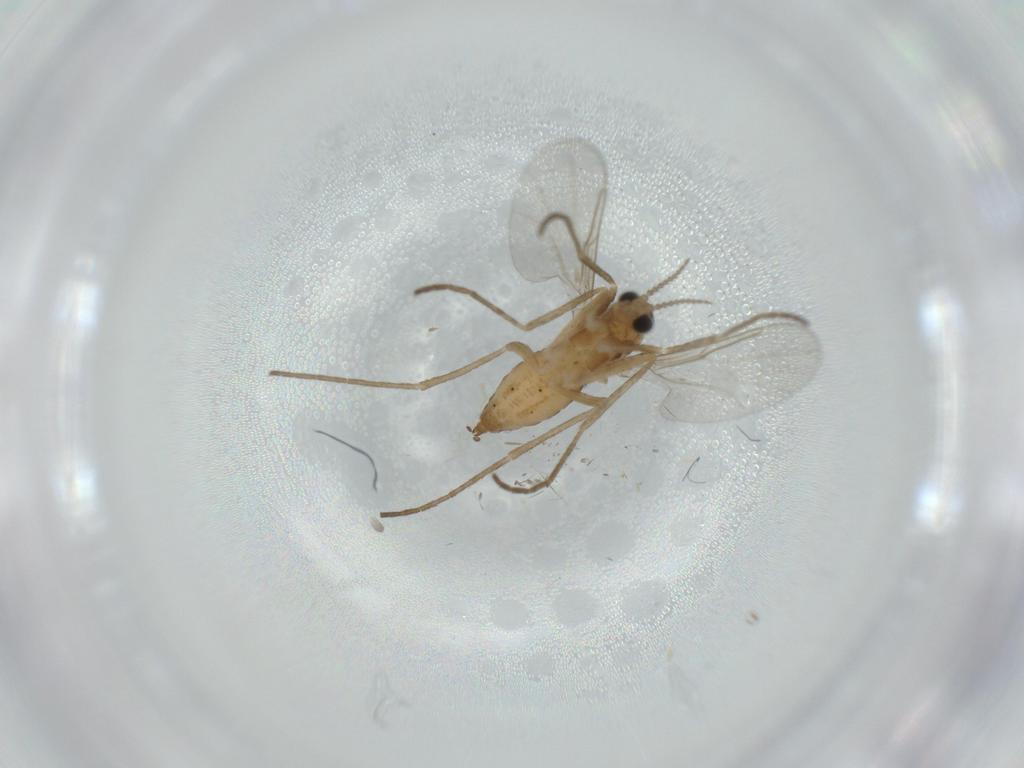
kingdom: Animalia
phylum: Arthropoda
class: Insecta
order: Diptera
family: Cecidomyiidae
